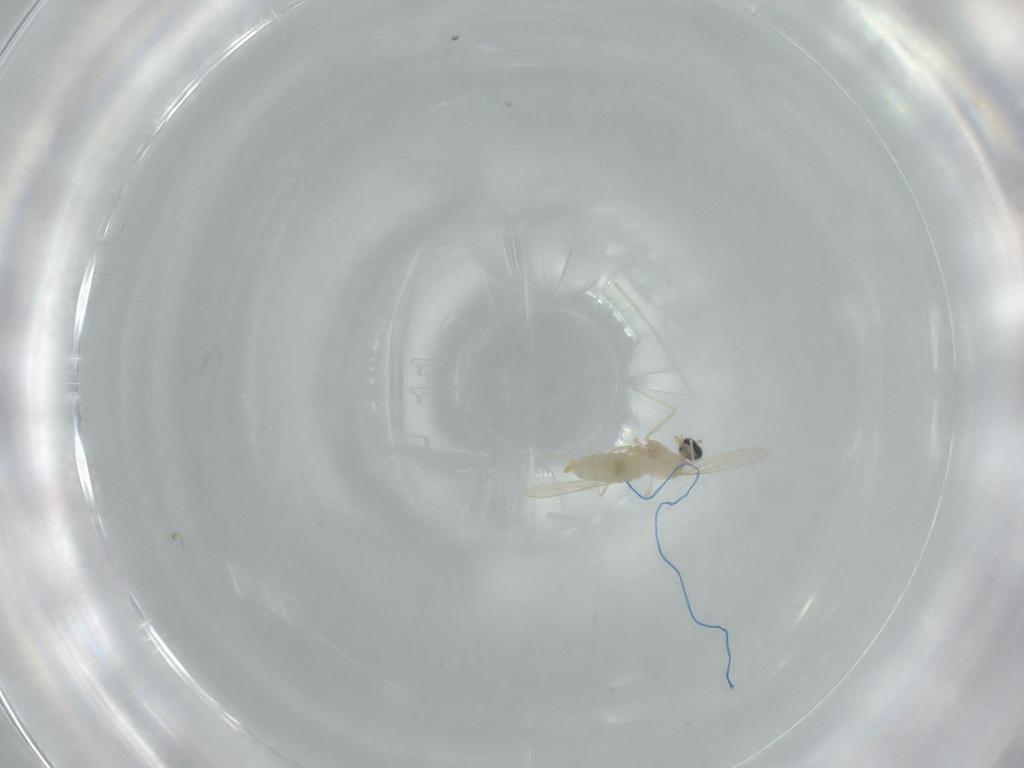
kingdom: Animalia
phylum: Arthropoda
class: Insecta
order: Diptera
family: Cecidomyiidae
